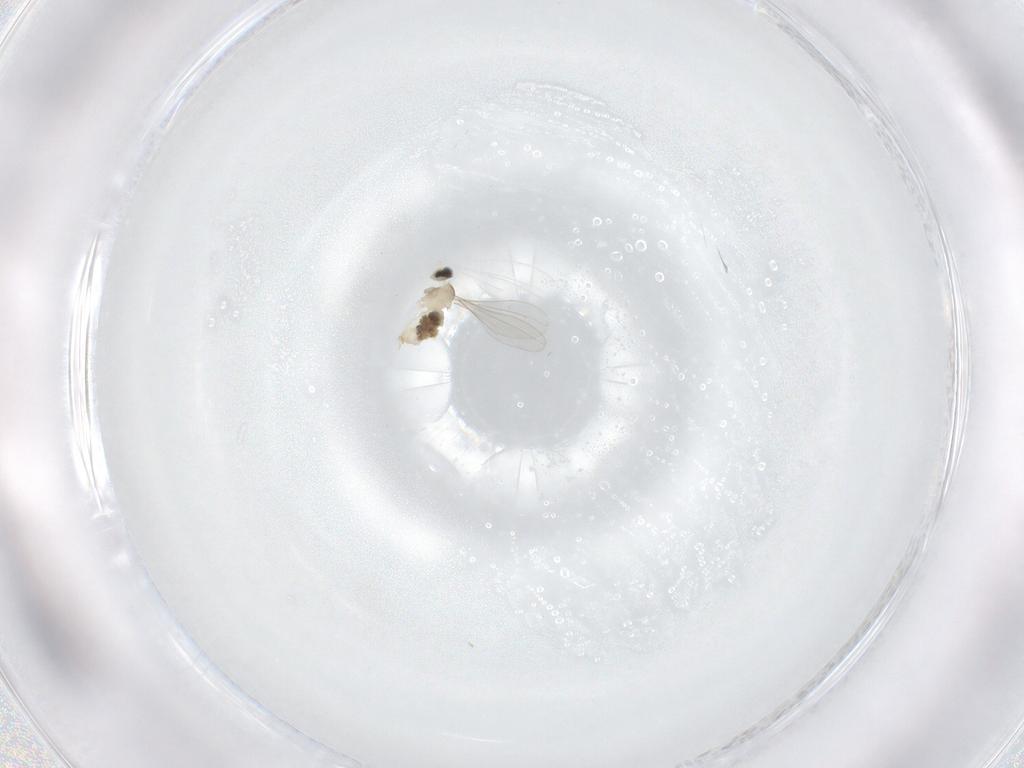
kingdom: Animalia
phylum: Arthropoda
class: Insecta
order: Diptera
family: Cecidomyiidae
